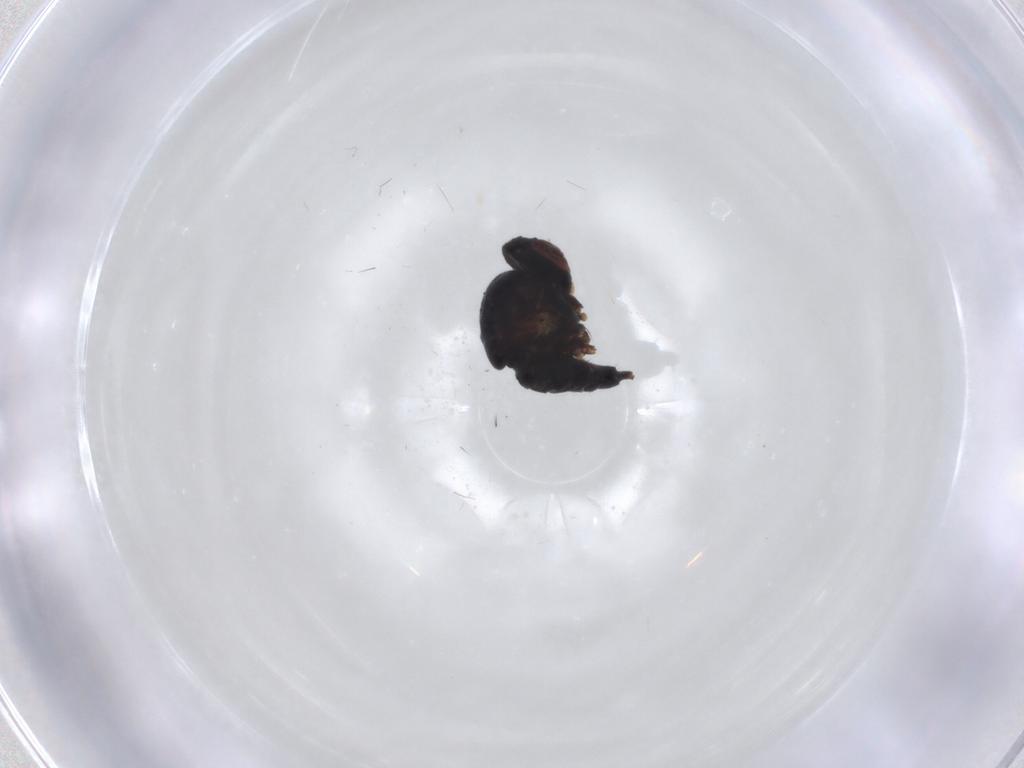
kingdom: Animalia
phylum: Arthropoda
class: Insecta
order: Diptera
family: Agromyzidae
